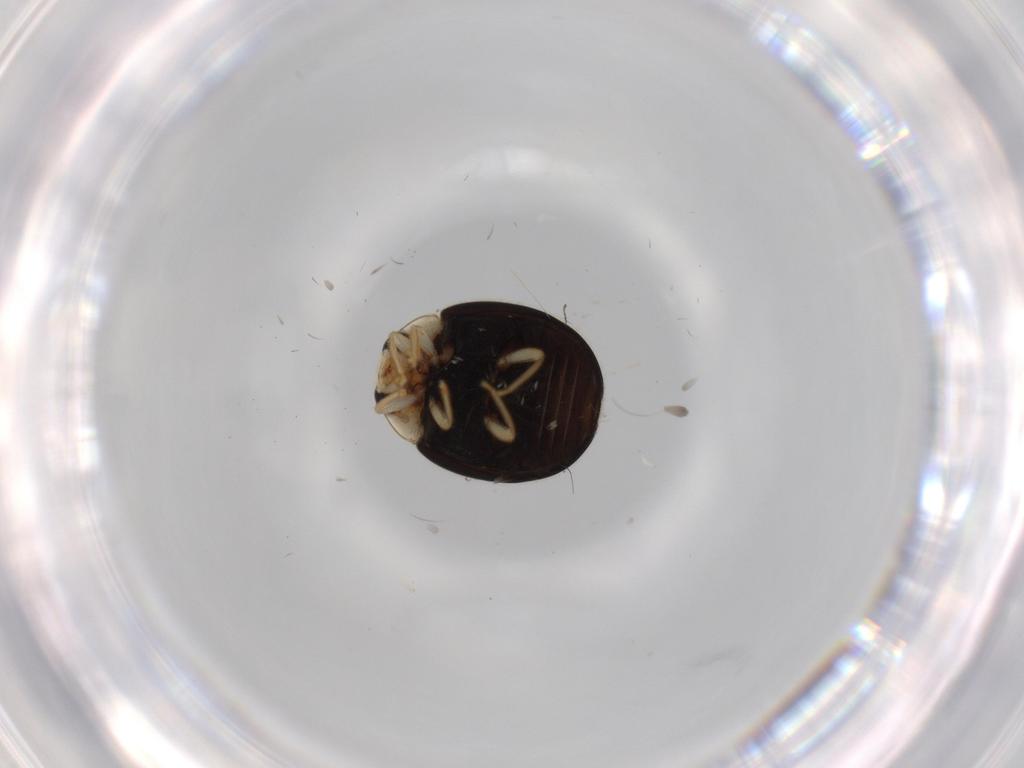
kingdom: Animalia
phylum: Arthropoda
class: Insecta
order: Coleoptera
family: Coccinellidae
